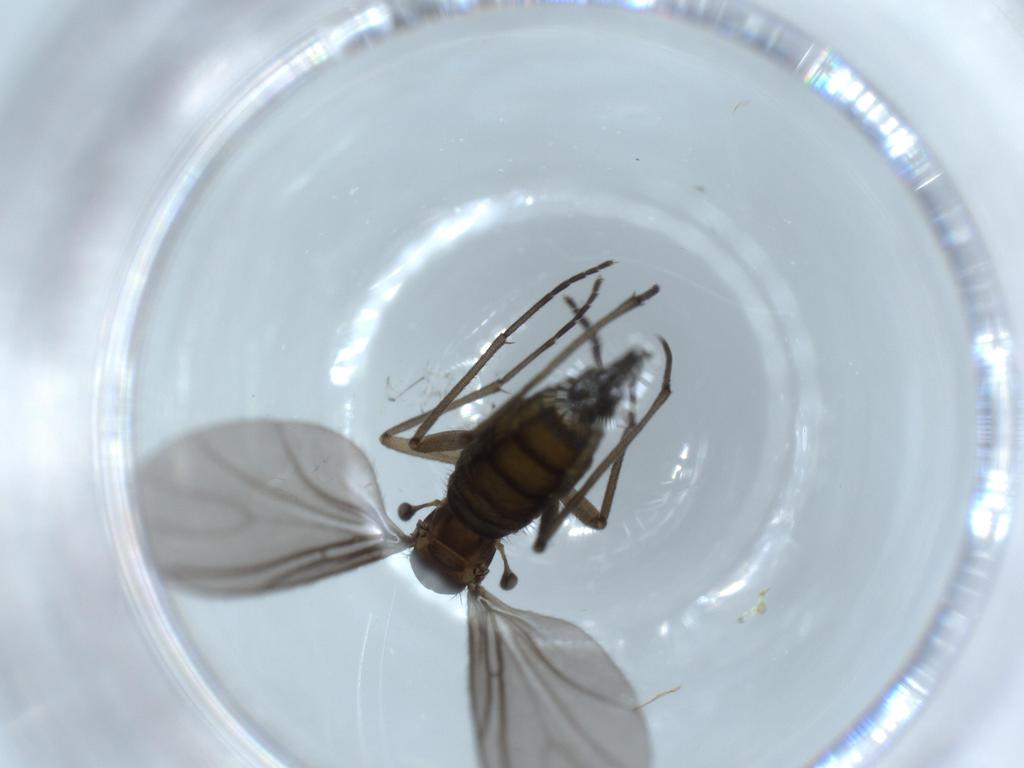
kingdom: Animalia
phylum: Arthropoda
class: Insecta
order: Diptera
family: Sciaridae
